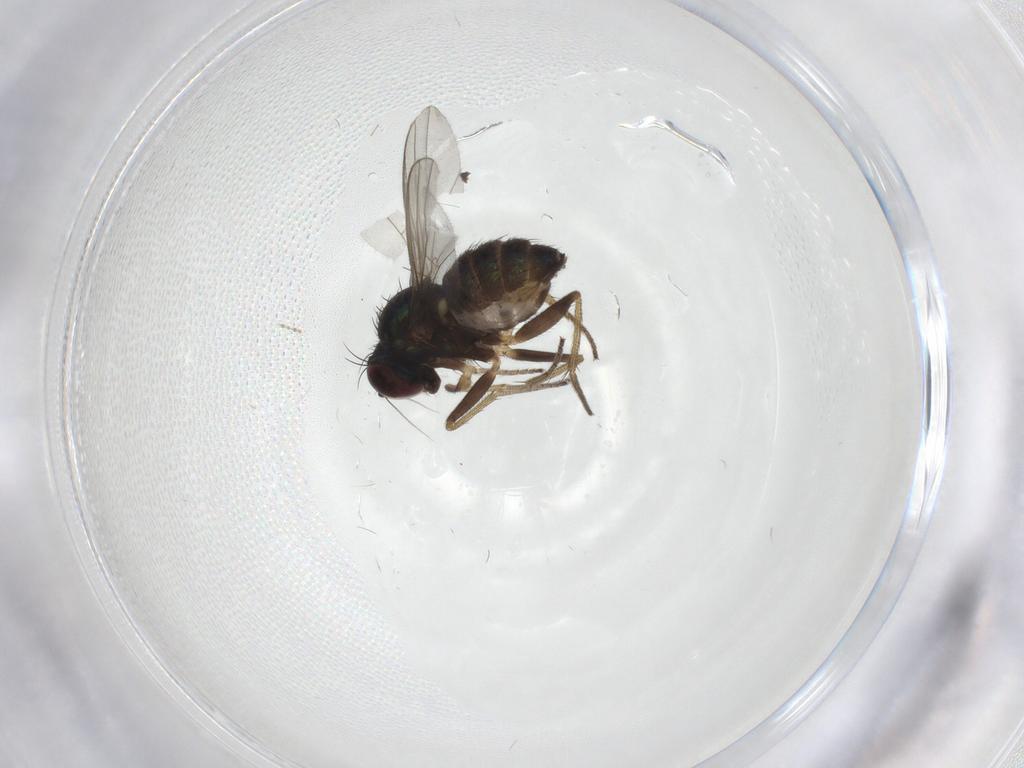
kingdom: Animalia
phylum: Arthropoda
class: Insecta
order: Diptera
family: Dolichopodidae
